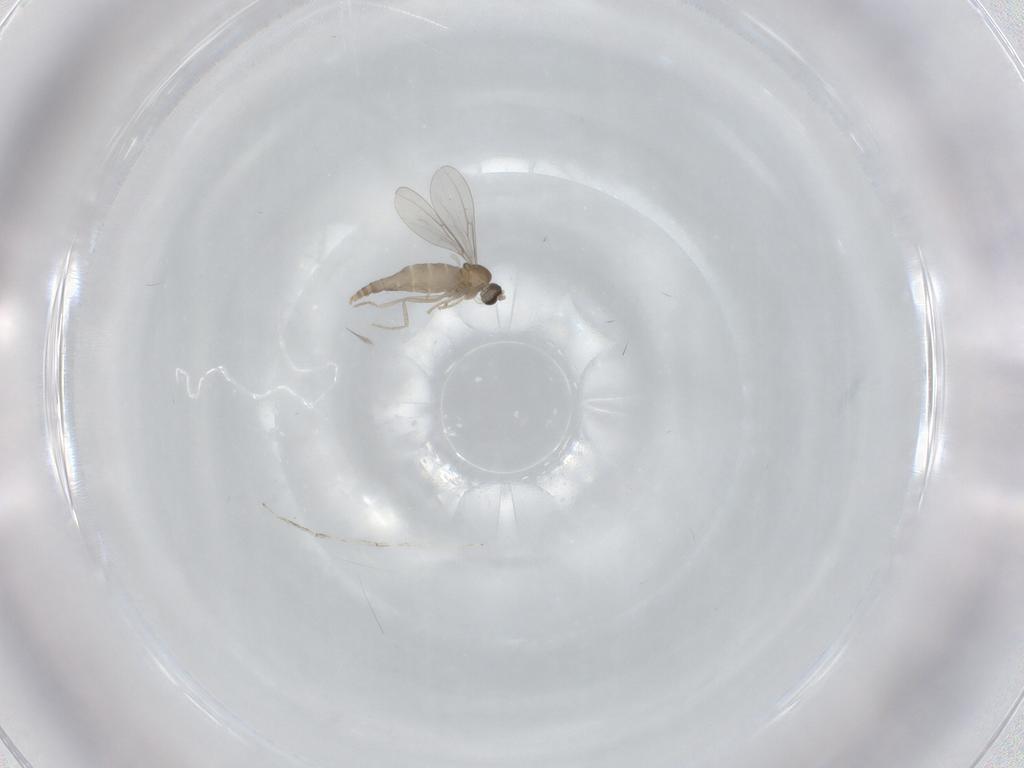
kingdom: Animalia
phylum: Arthropoda
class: Insecta
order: Diptera
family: Cecidomyiidae
